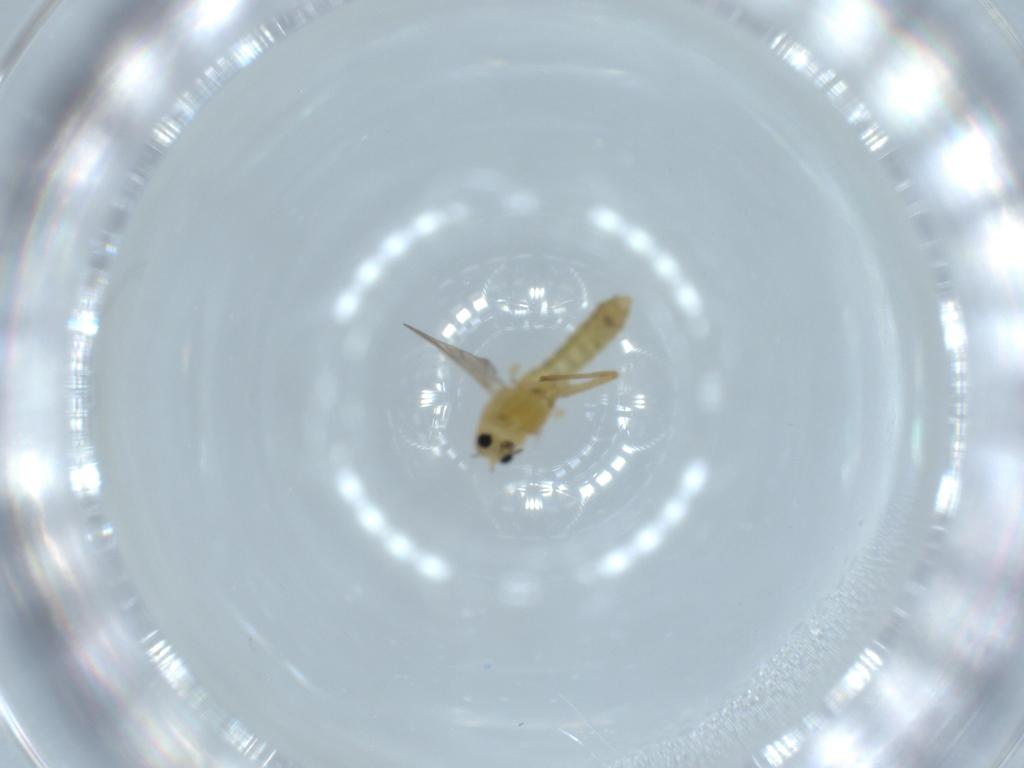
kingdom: Animalia
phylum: Arthropoda
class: Insecta
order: Diptera
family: Chironomidae
